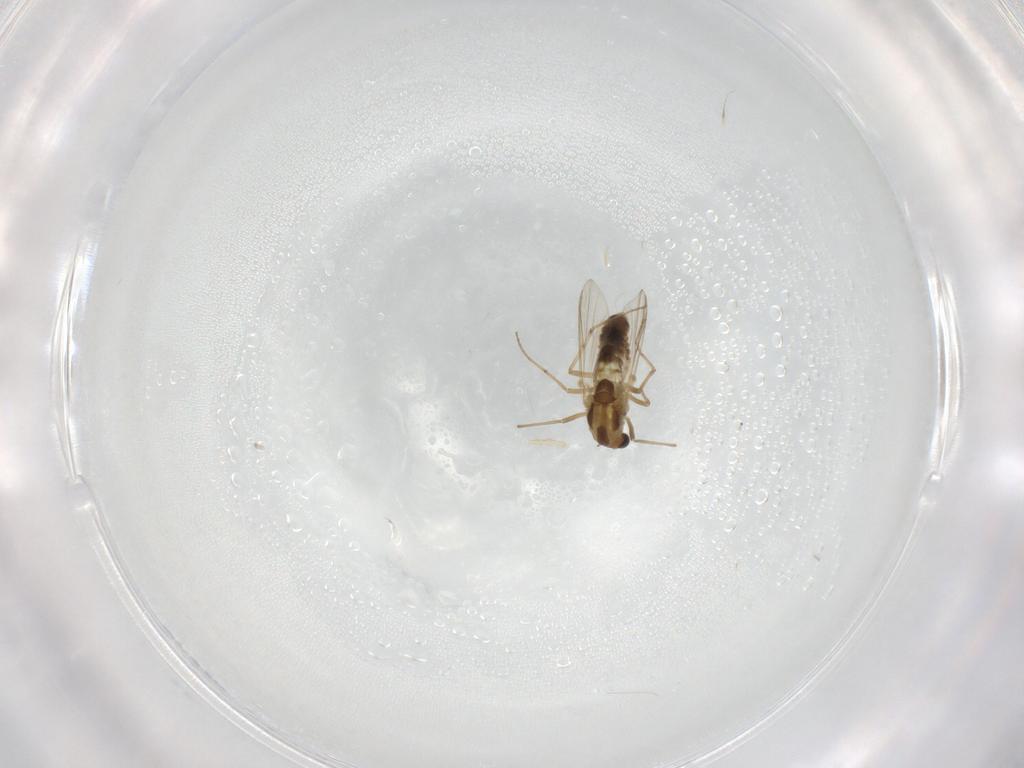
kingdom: Animalia
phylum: Arthropoda
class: Insecta
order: Diptera
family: Chironomidae
